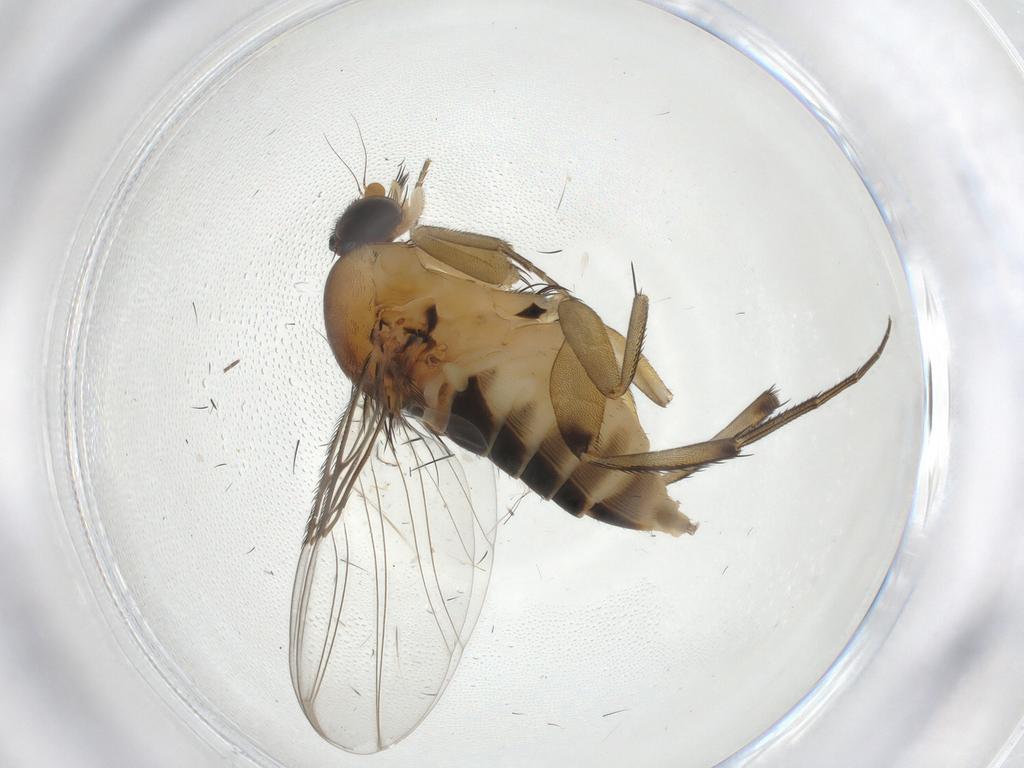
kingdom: Animalia
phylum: Arthropoda
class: Insecta
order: Diptera
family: Phoridae
